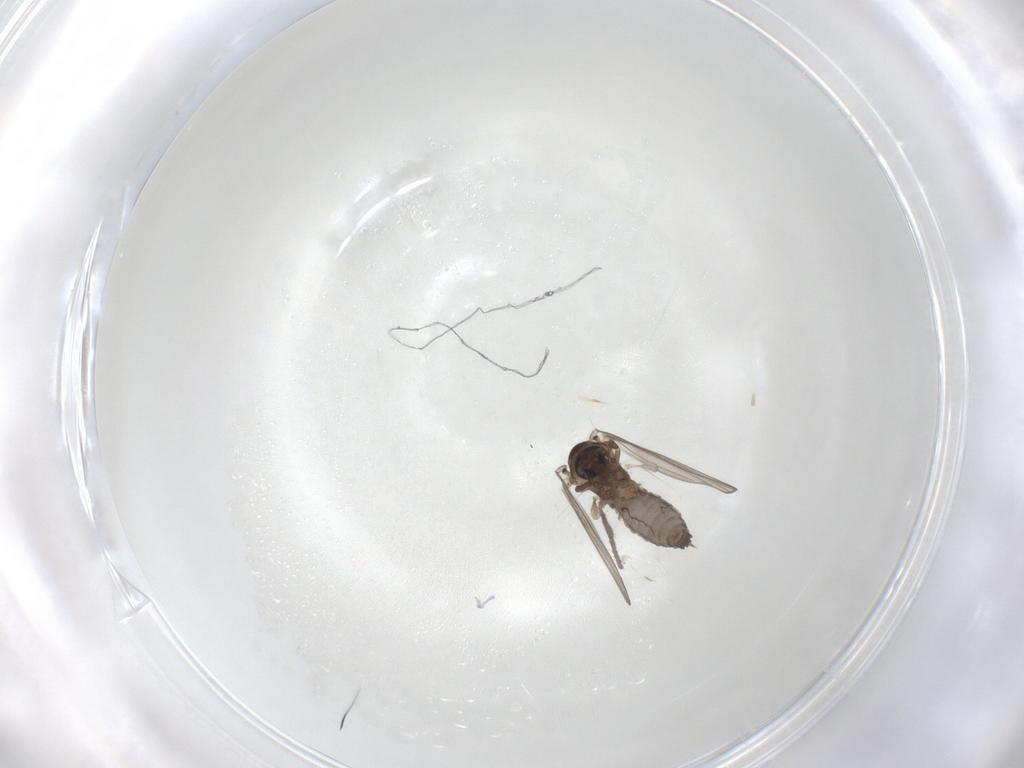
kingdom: Animalia
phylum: Arthropoda
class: Insecta
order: Diptera
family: Psychodidae
